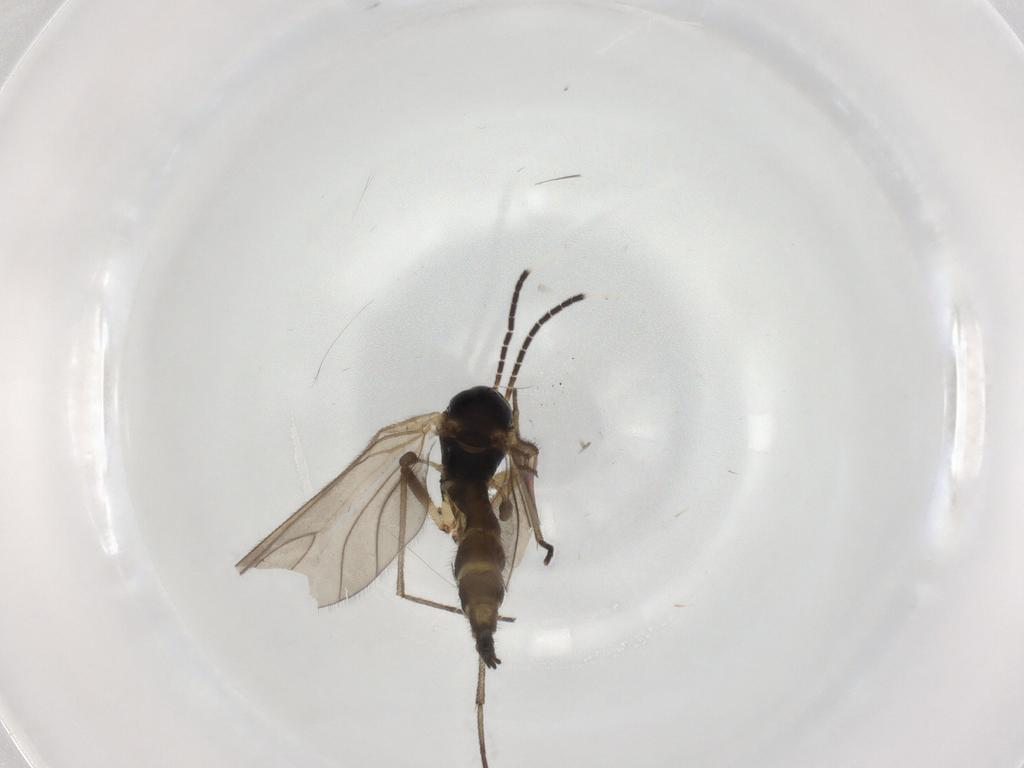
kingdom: Animalia
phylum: Arthropoda
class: Insecta
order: Diptera
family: Sciaridae
